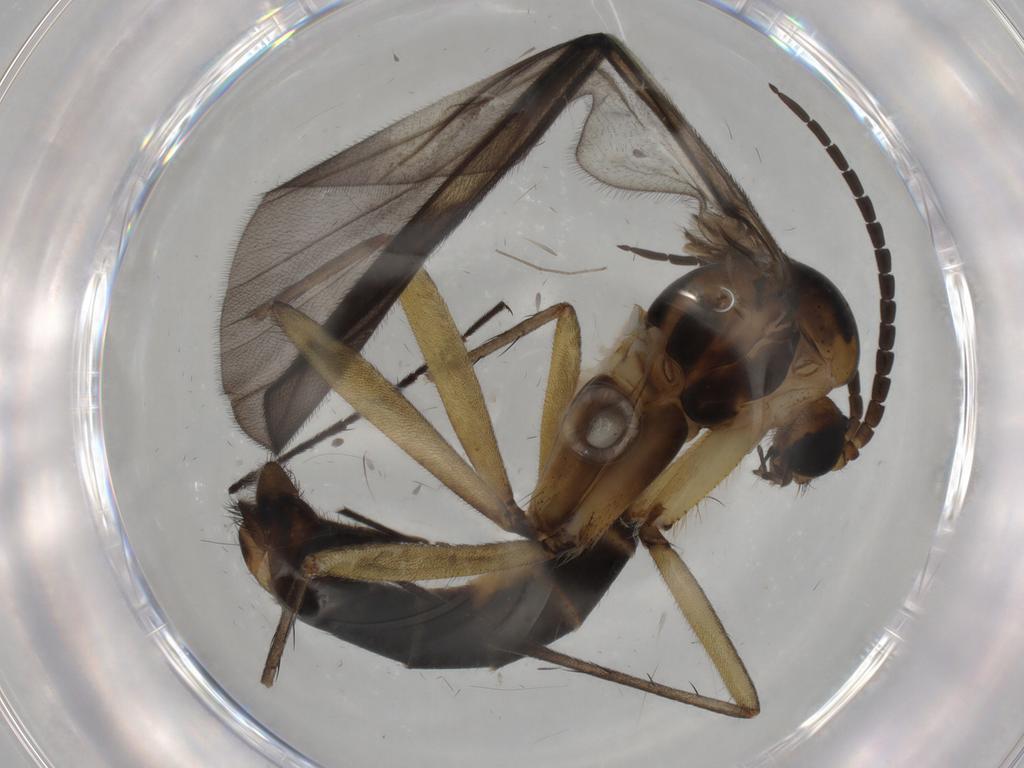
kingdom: Animalia
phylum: Arthropoda
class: Insecta
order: Diptera
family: Ditomyiidae
